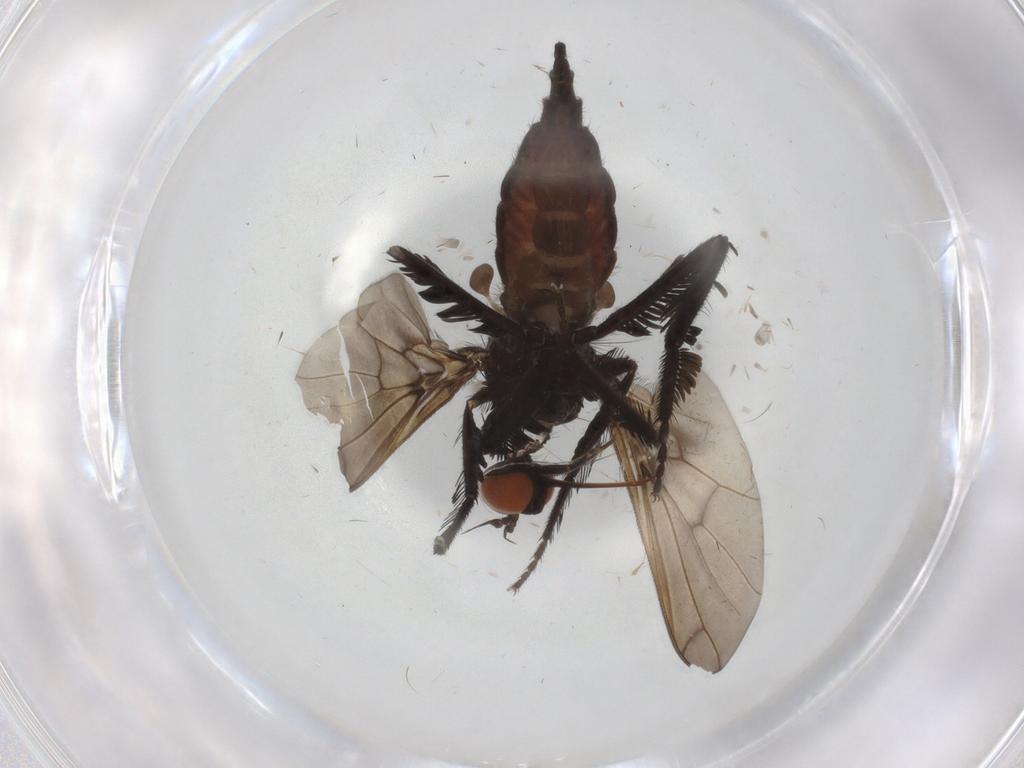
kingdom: Animalia
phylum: Arthropoda
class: Insecta
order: Diptera
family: Empididae
